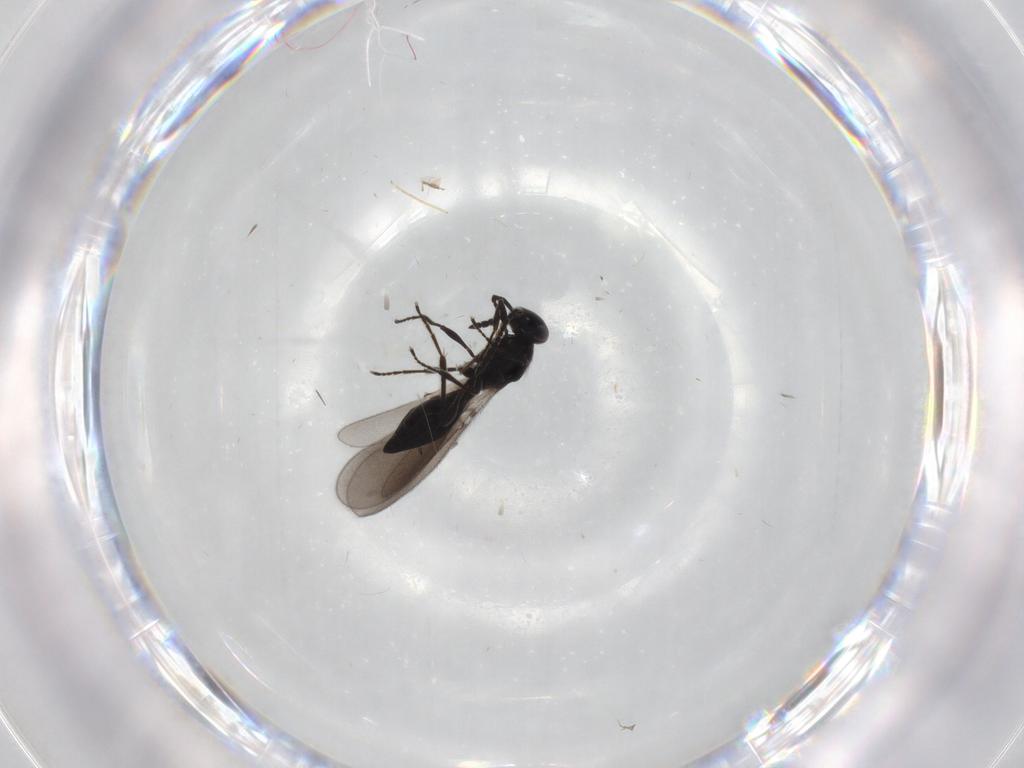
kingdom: Animalia
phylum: Arthropoda
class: Insecta
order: Hymenoptera
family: Platygastridae
